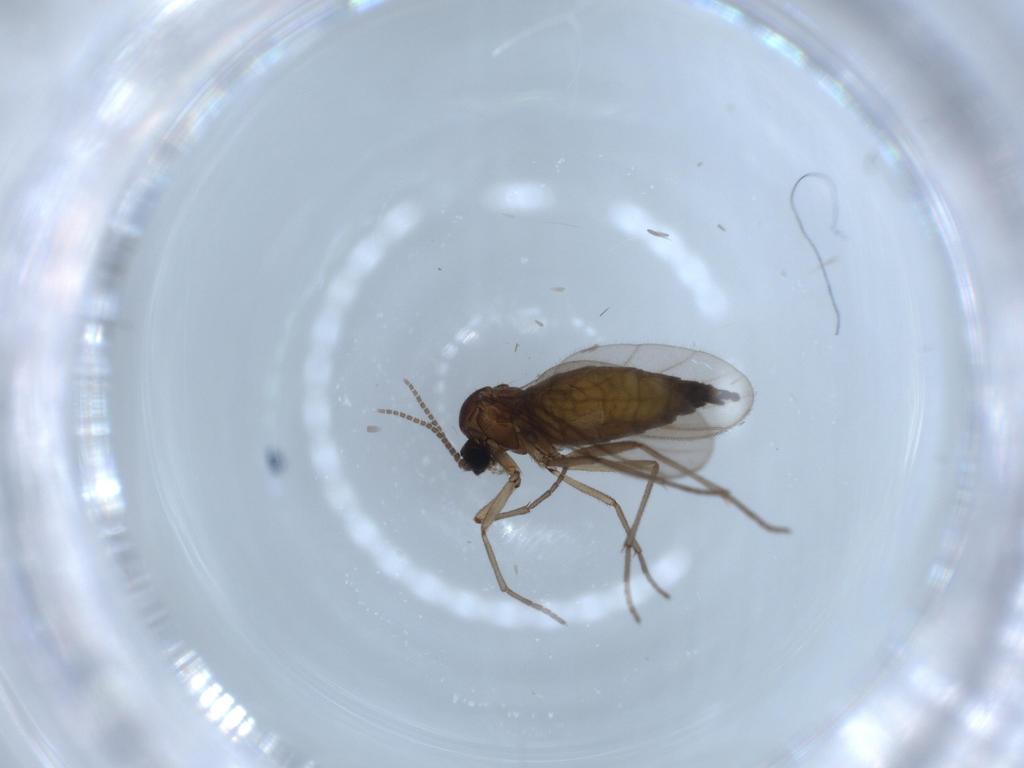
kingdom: Animalia
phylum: Arthropoda
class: Insecta
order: Diptera
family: Sciaridae
